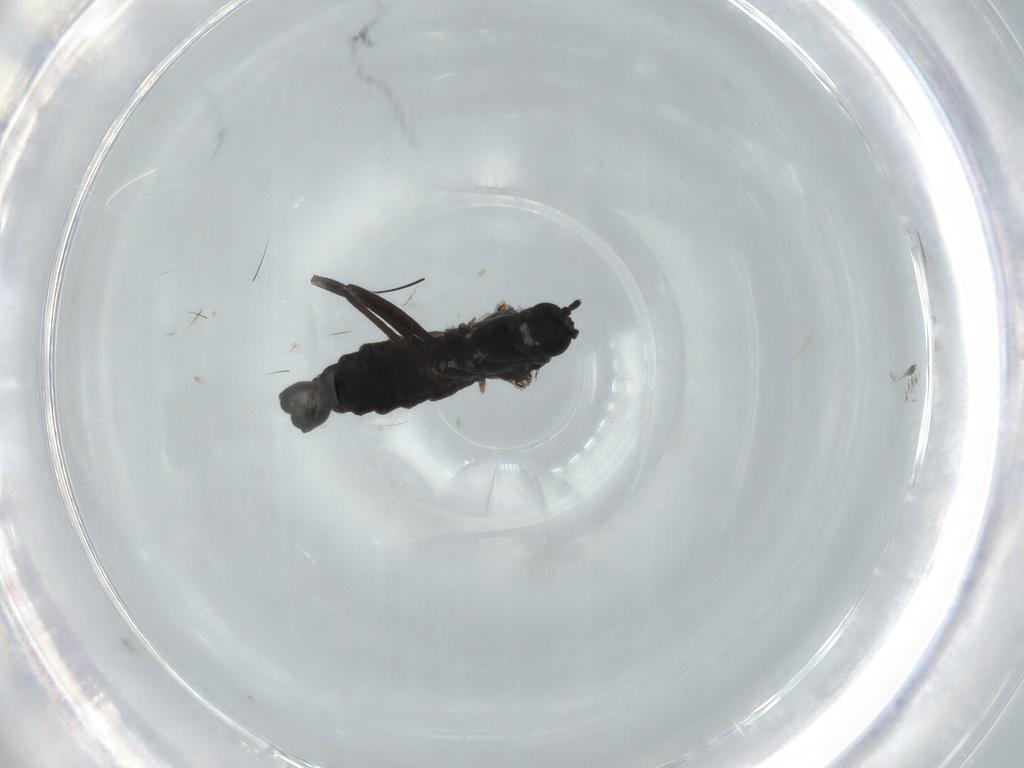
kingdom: Animalia
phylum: Arthropoda
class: Insecta
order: Diptera
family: Sciaridae
